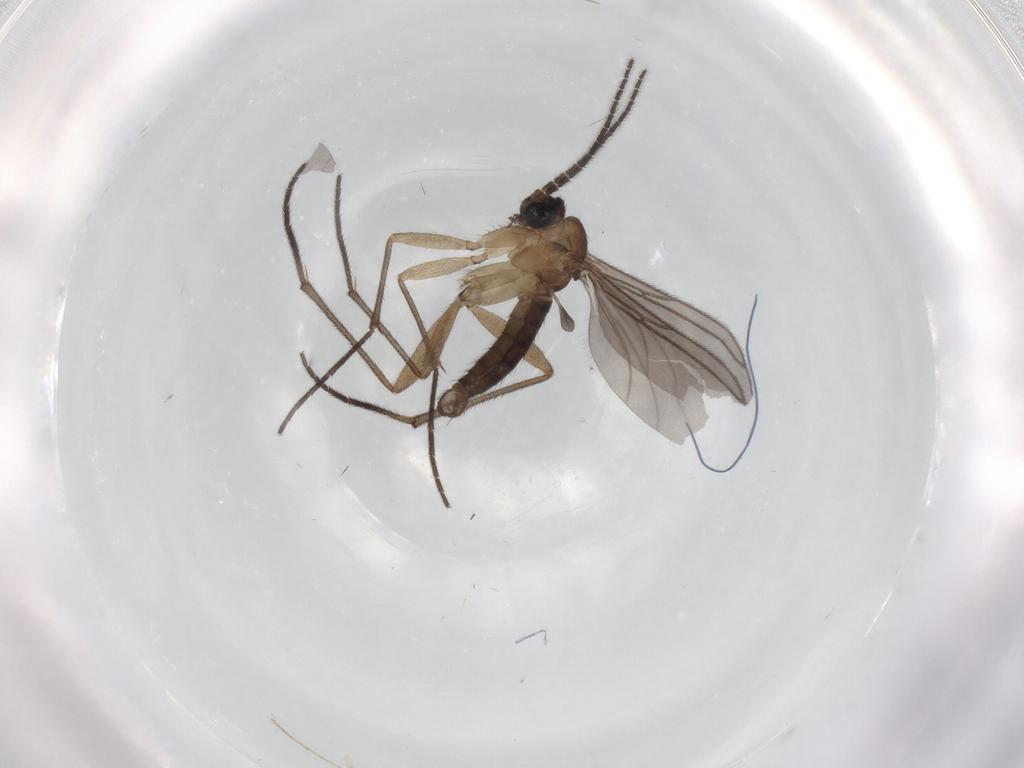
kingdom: Animalia
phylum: Arthropoda
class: Insecta
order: Diptera
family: Sciaridae
